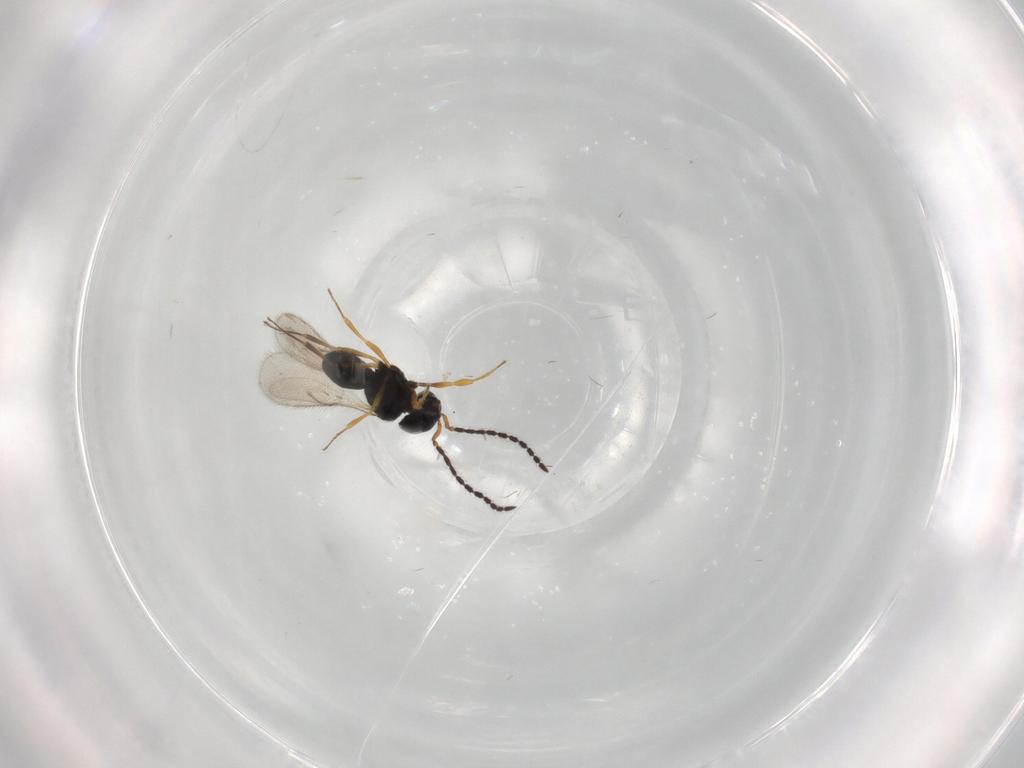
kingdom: Animalia
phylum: Arthropoda
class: Insecta
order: Hymenoptera
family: Scelionidae
